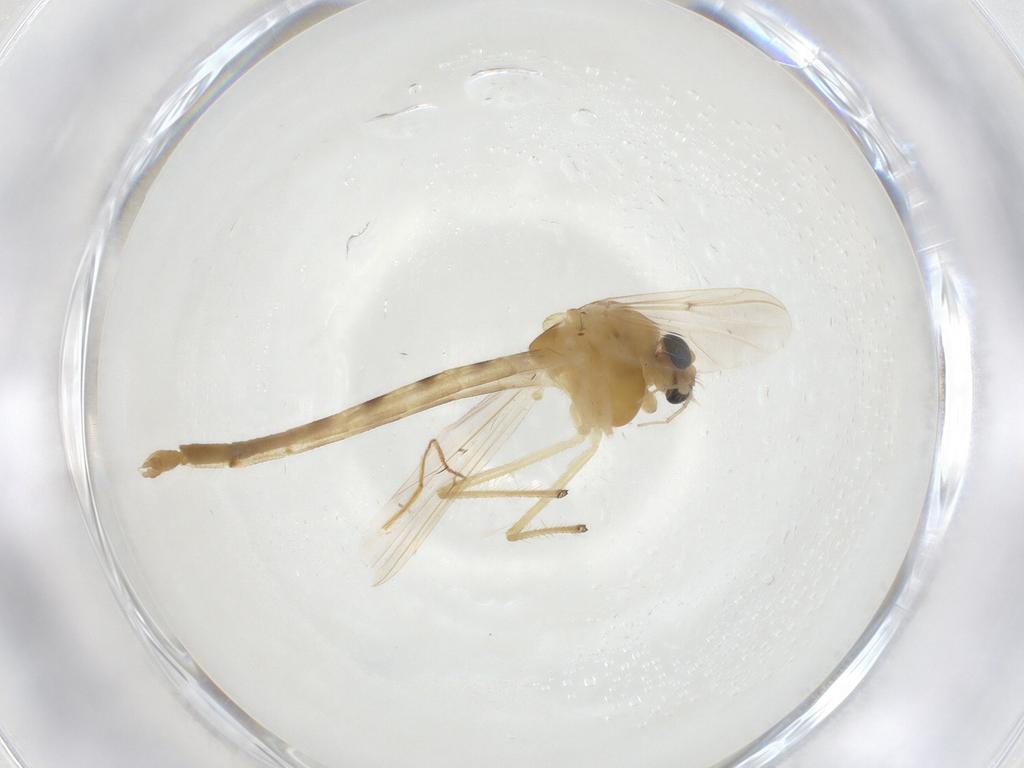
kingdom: Animalia
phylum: Arthropoda
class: Insecta
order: Diptera
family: Chironomidae
